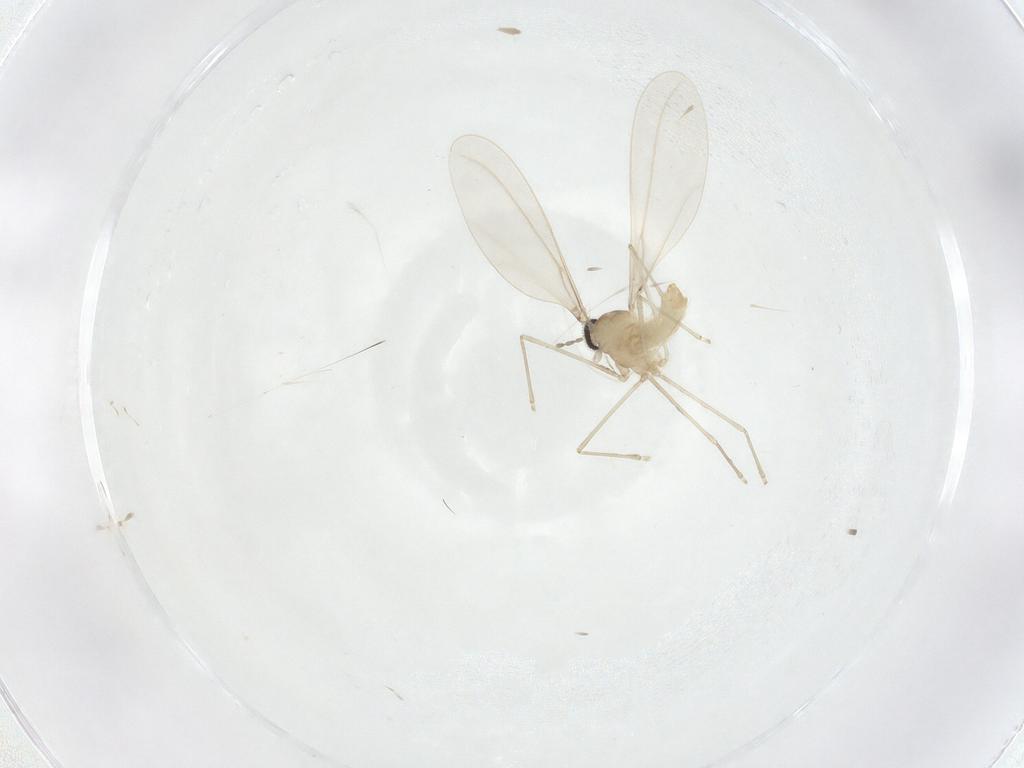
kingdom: Animalia
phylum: Arthropoda
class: Insecta
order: Diptera
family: Cecidomyiidae
